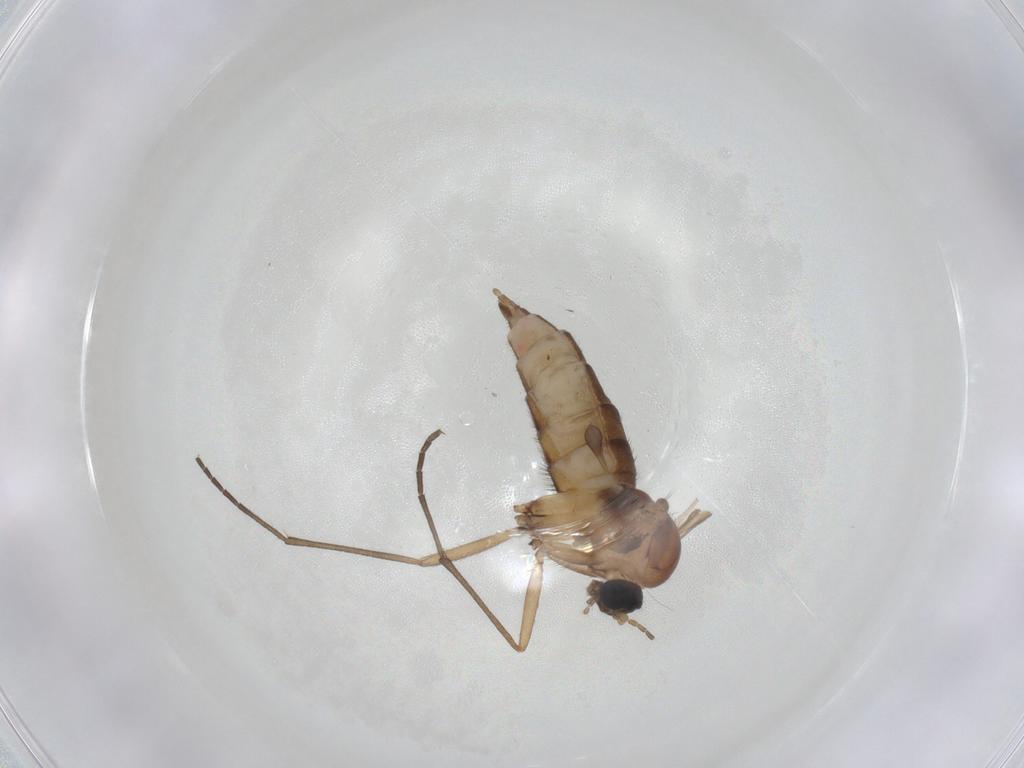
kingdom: Animalia
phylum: Arthropoda
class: Insecta
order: Diptera
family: Sciaridae
